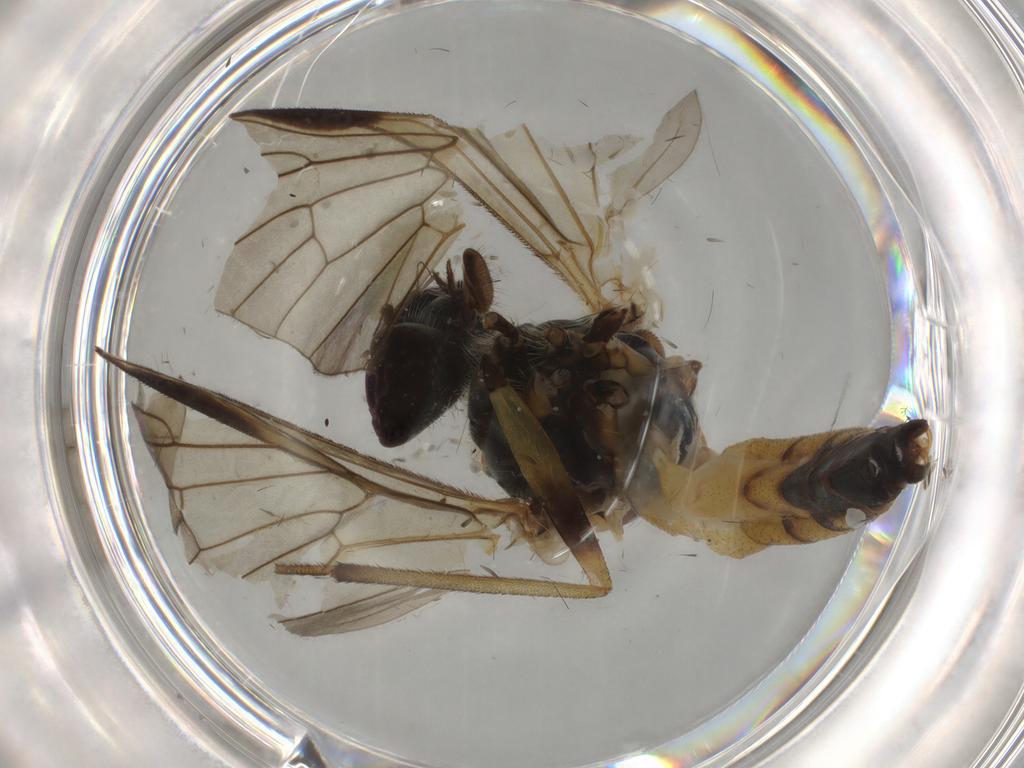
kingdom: Animalia
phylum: Arthropoda
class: Insecta
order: Diptera
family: Rhagionidae
